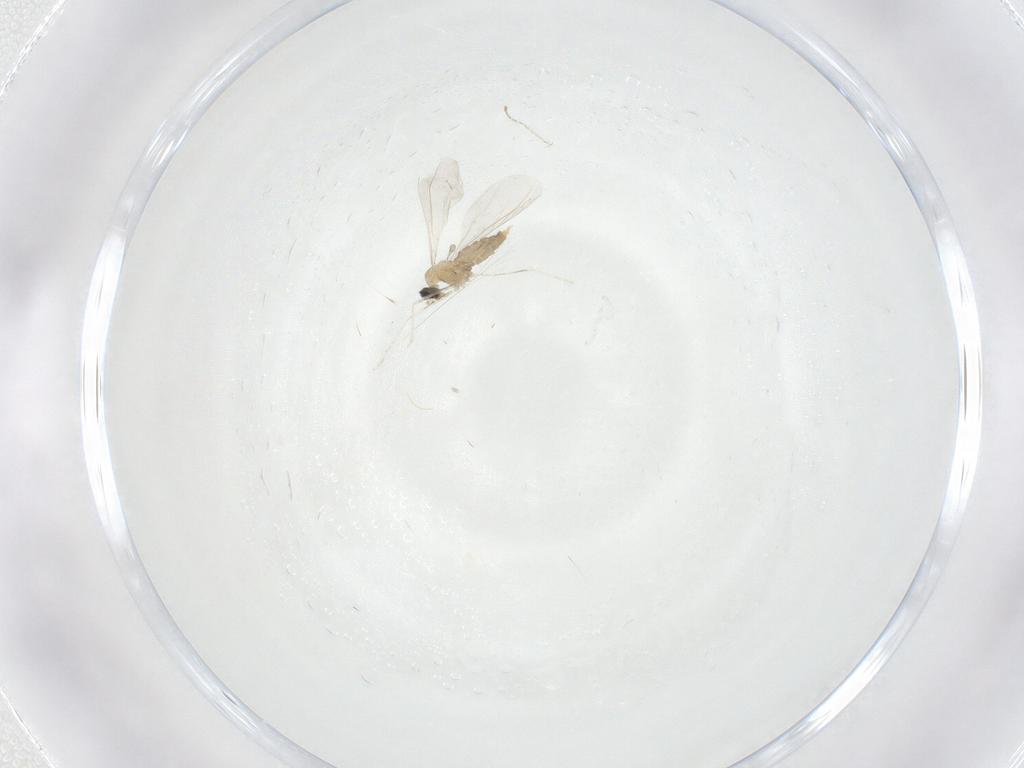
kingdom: Animalia
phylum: Arthropoda
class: Insecta
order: Diptera
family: Cecidomyiidae
